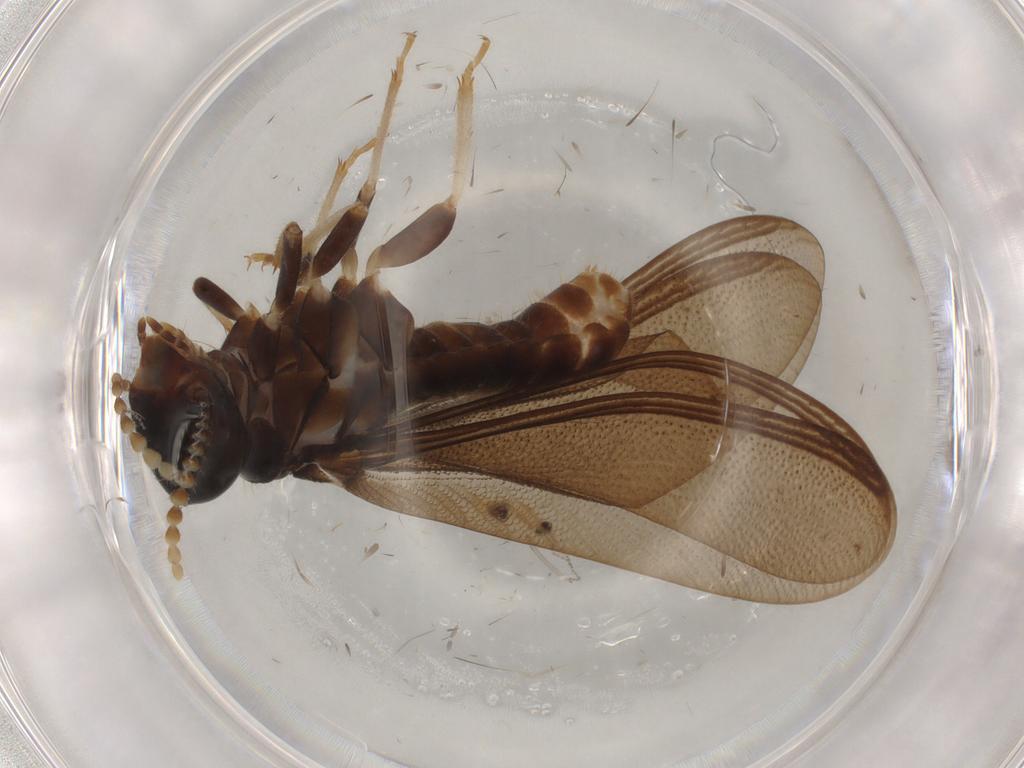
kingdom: Animalia
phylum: Arthropoda
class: Insecta
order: Blattodea
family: Kalotermitidae
